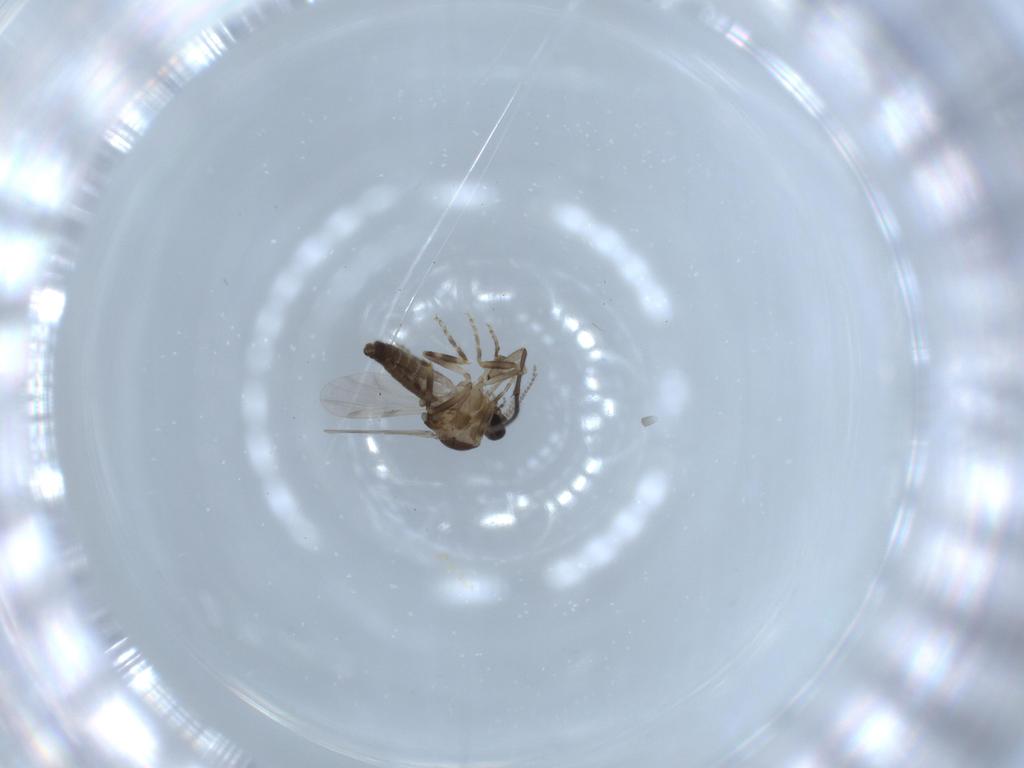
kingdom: Animalia
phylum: Arthropoda
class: Insecta
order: Diptera
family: Ceratopogonidae
